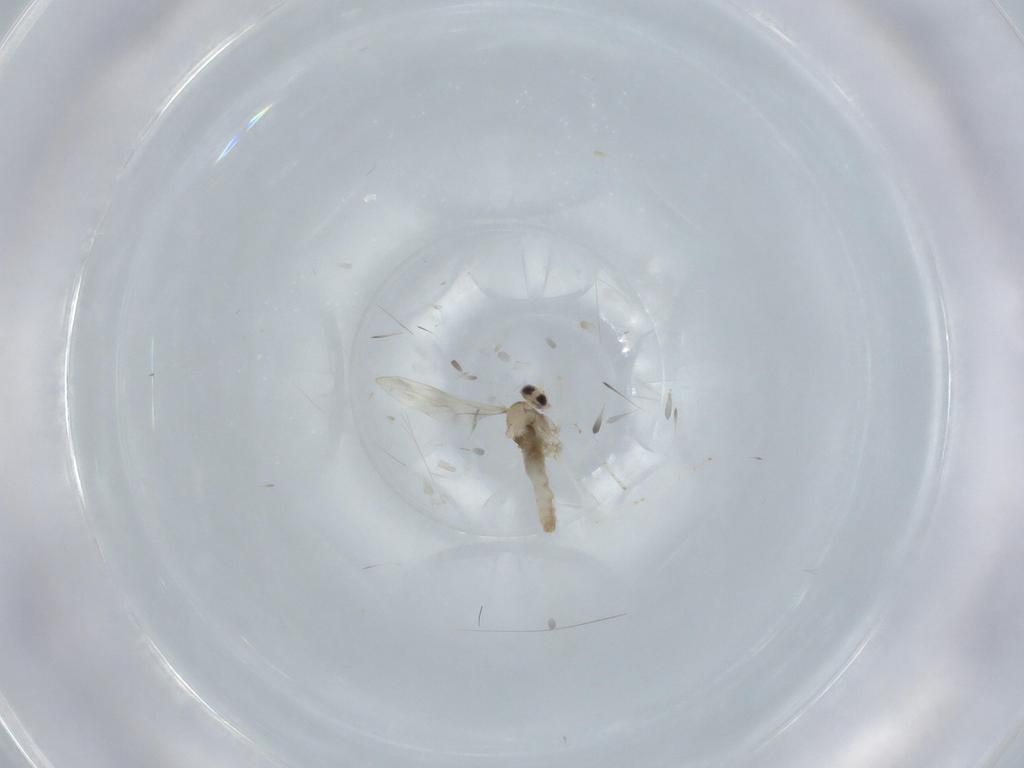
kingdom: Animalia
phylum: Arthropoda
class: Insecta
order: Diptera
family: Cecidomyiidae
